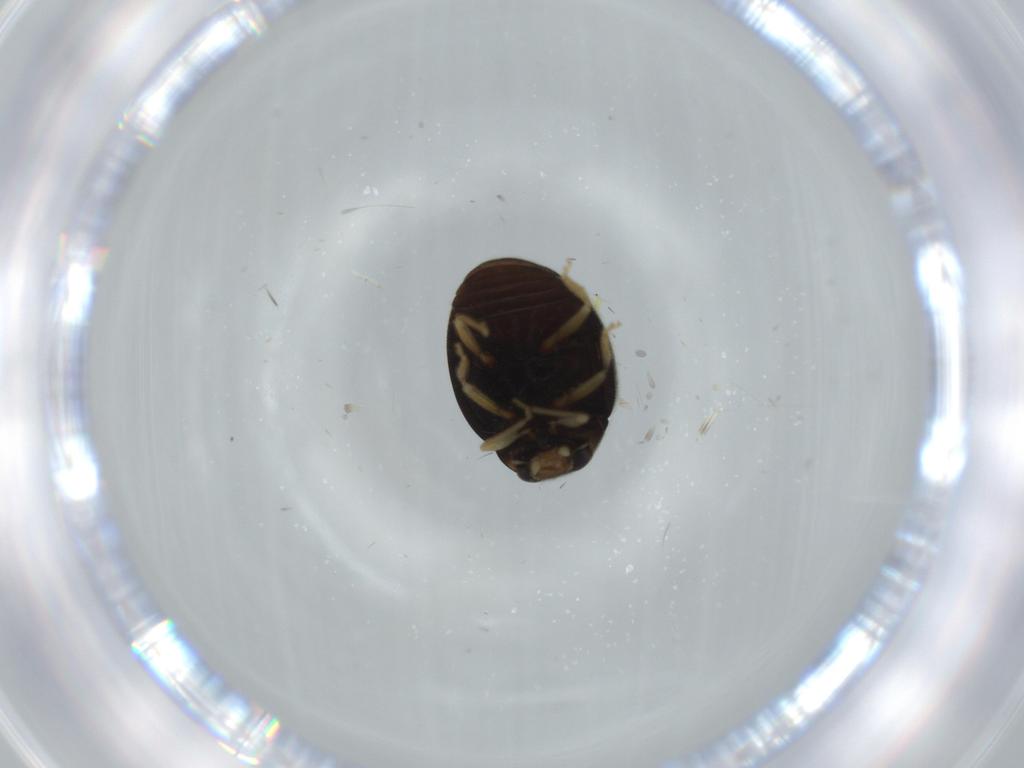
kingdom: Animalia
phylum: Arthropoda
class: Insecta
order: Coleoptera
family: Coccinellidae
